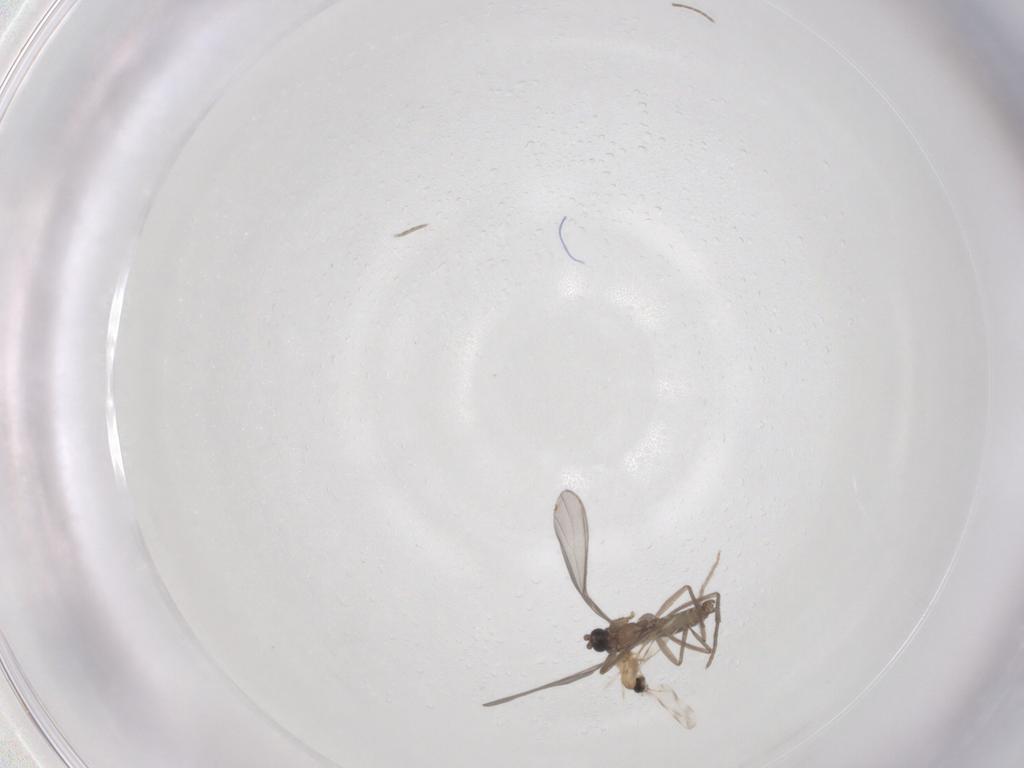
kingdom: Animalia
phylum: Arthropoda
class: Insecta
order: Diptera
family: Cecidomyiidae
